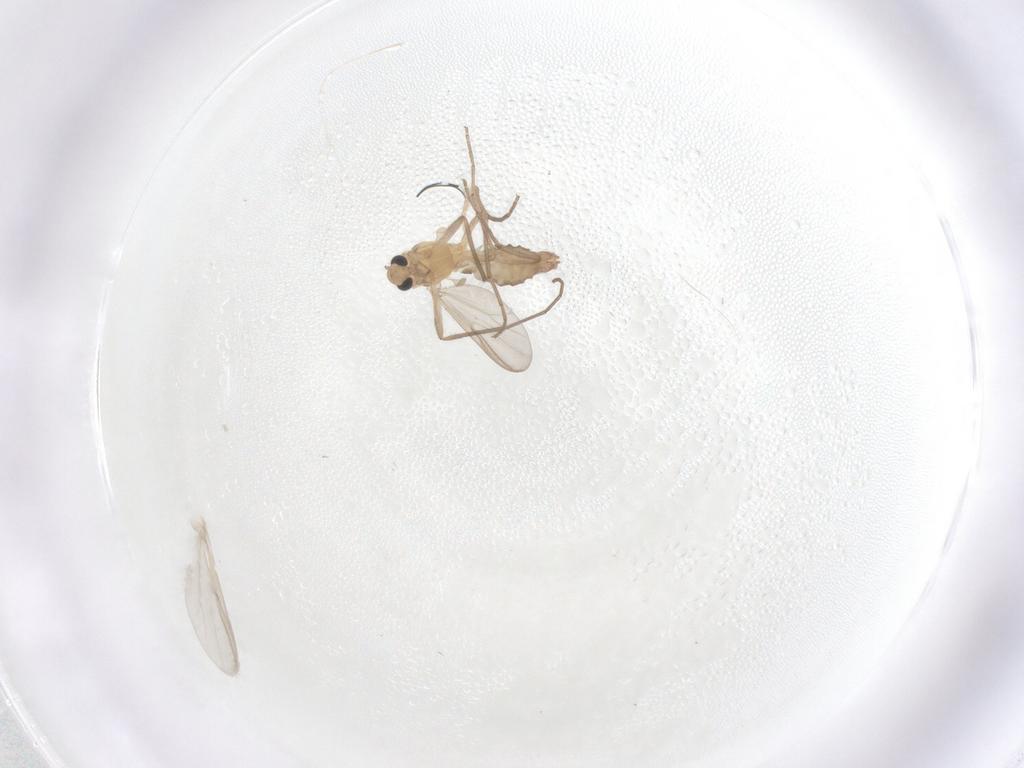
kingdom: Animalia
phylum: Arthropoda
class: Insecta
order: Diptera
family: Chironomidae
